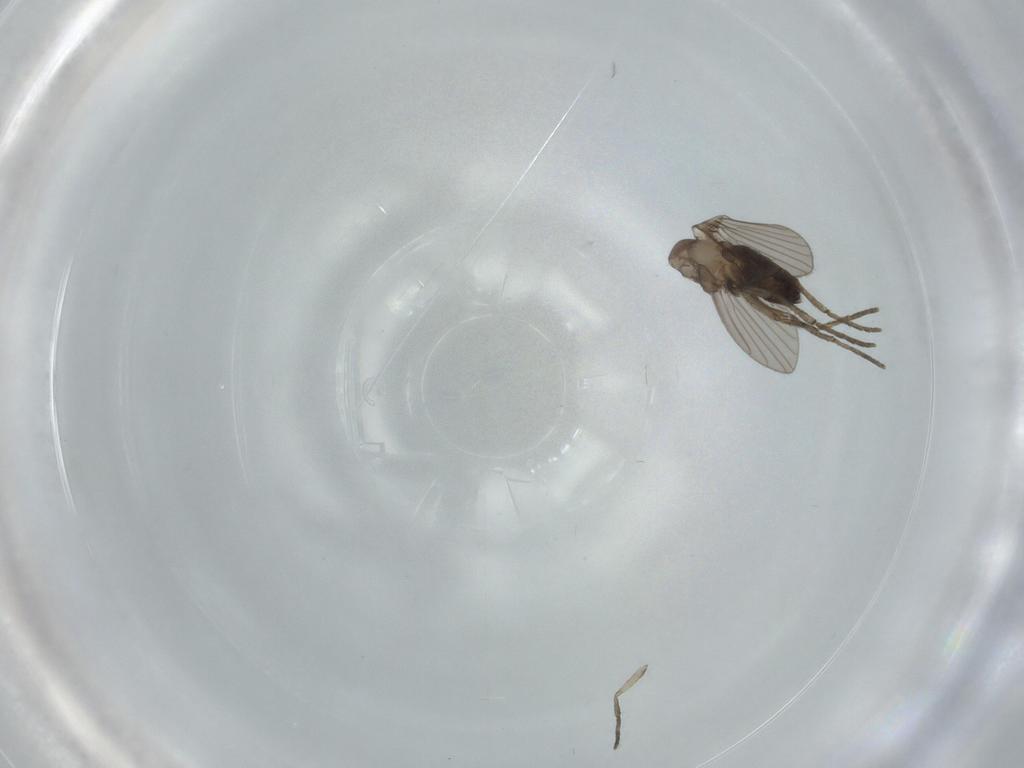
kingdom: Animalia
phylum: Arthropoda
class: Insecta
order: Diptera
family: Psychodidae
